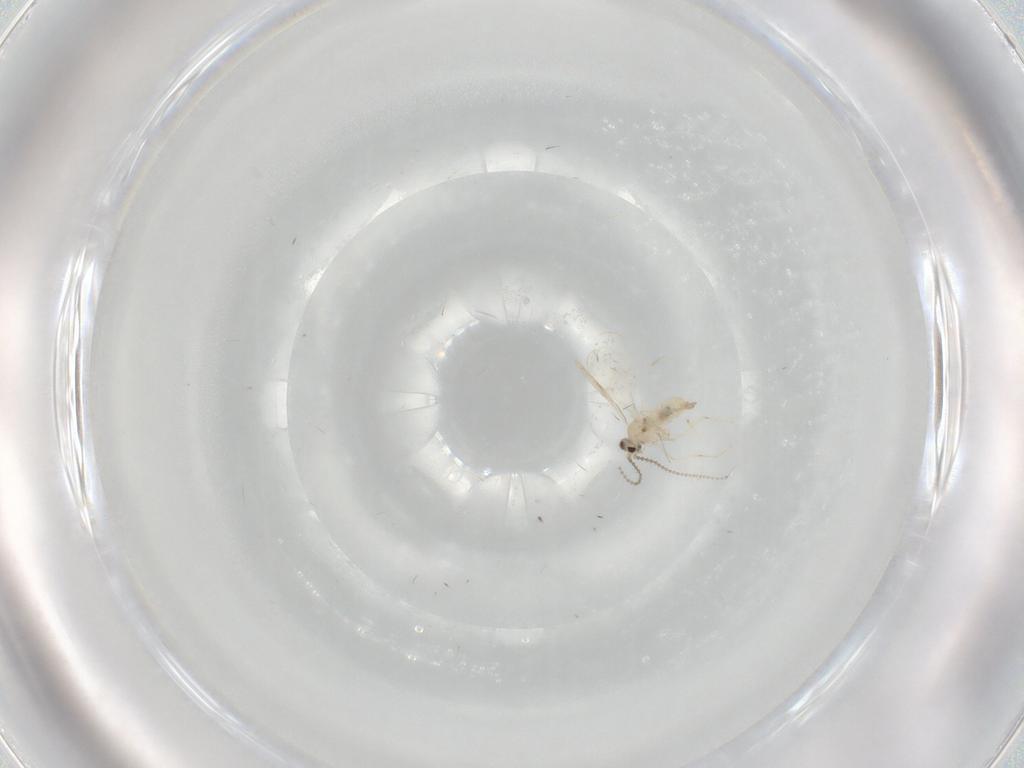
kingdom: Animalia
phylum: Arthropoda
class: Insecta
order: Diptera
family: Cecidomyiidae
